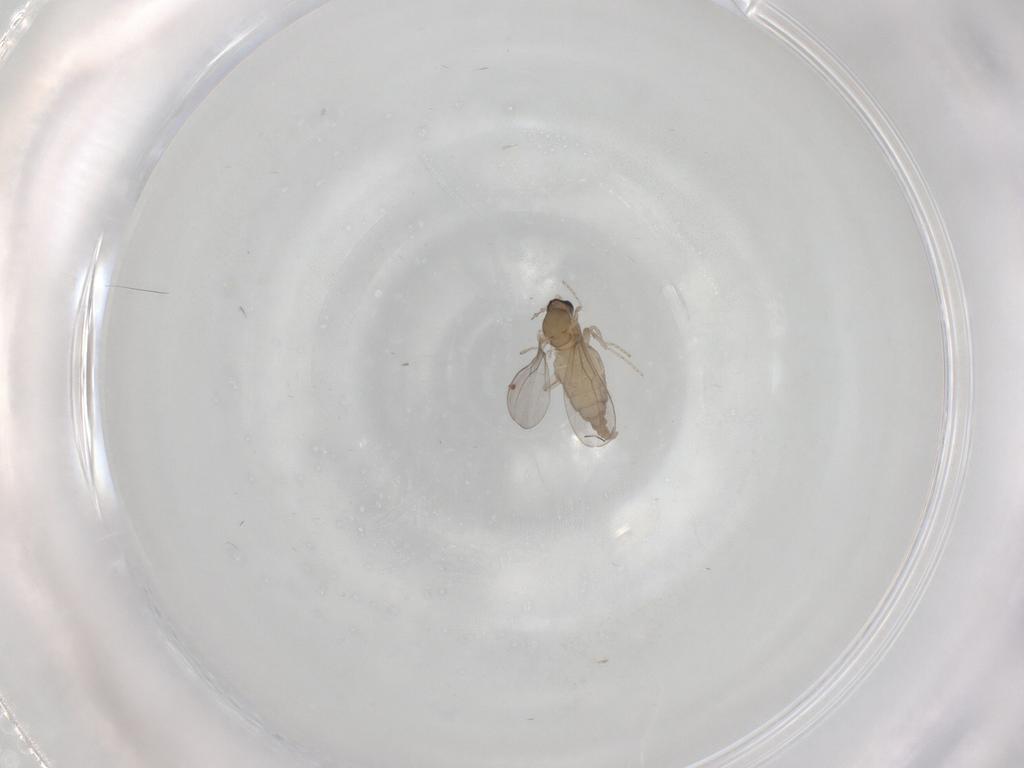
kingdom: Animalia
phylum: Arthropoda
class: Insecta
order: Diptera
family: Cecidomyiidae
